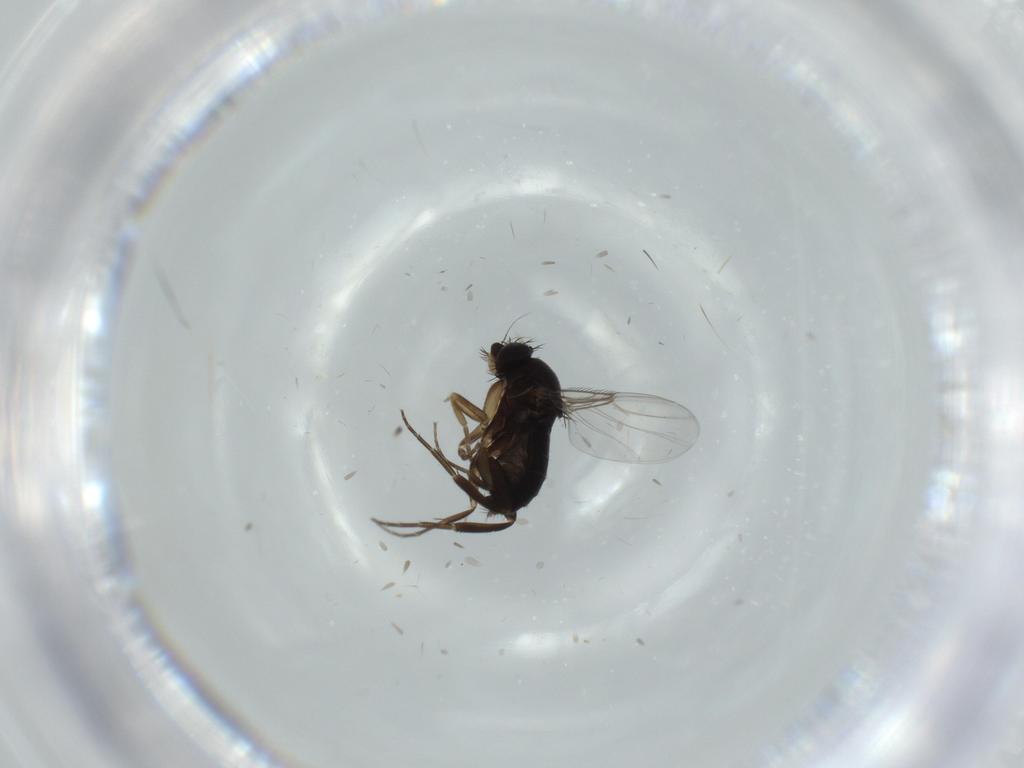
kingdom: Animalia
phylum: Arthropoda
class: Insecta
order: Diptera
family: Phoridae
